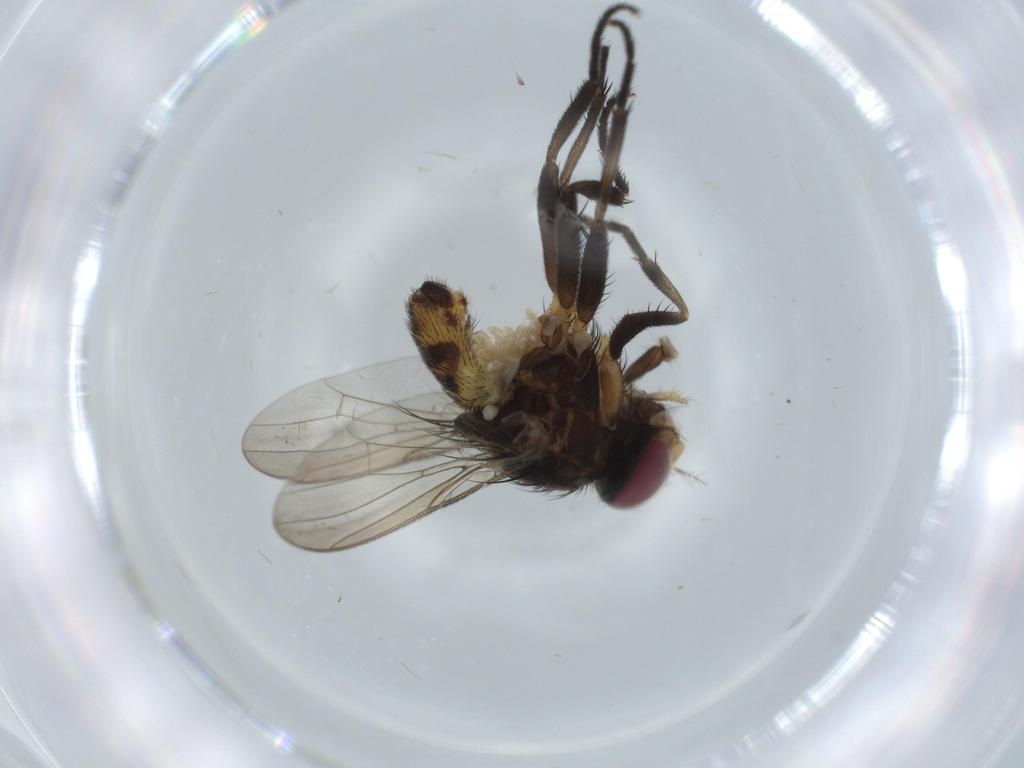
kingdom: Animalia
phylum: Arthropoda
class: Insecta
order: Diptera
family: Anthomyiidae
